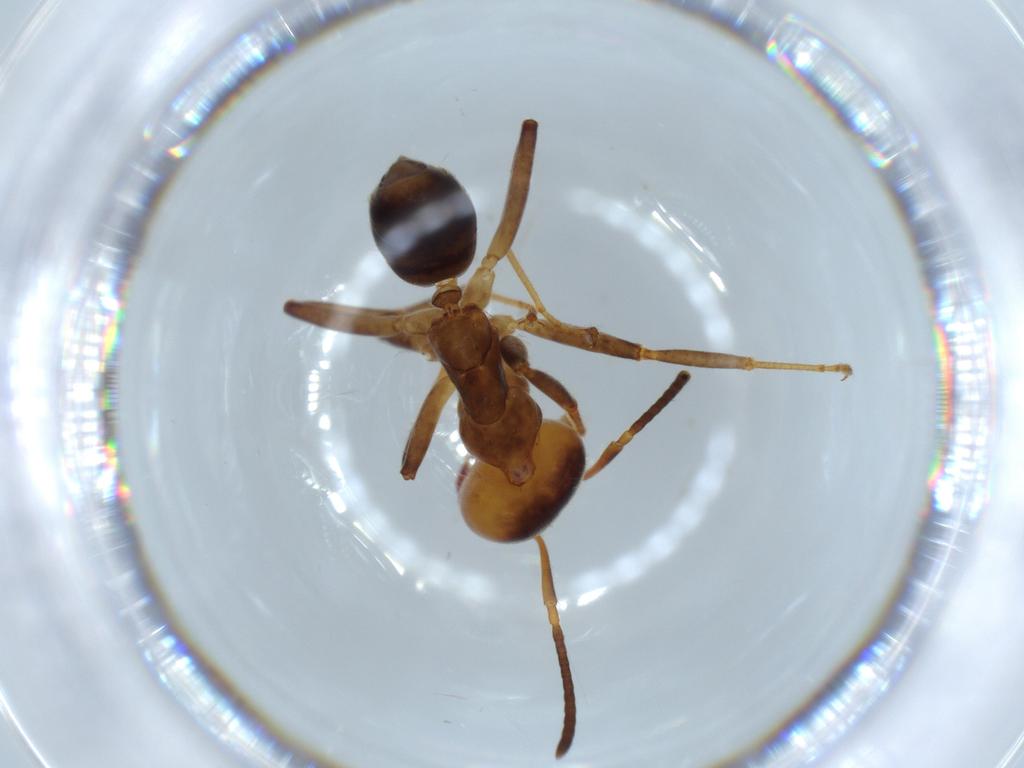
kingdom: Animalia
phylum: Arthropoda
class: Insecta
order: Hymenoptera
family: Formicidae
